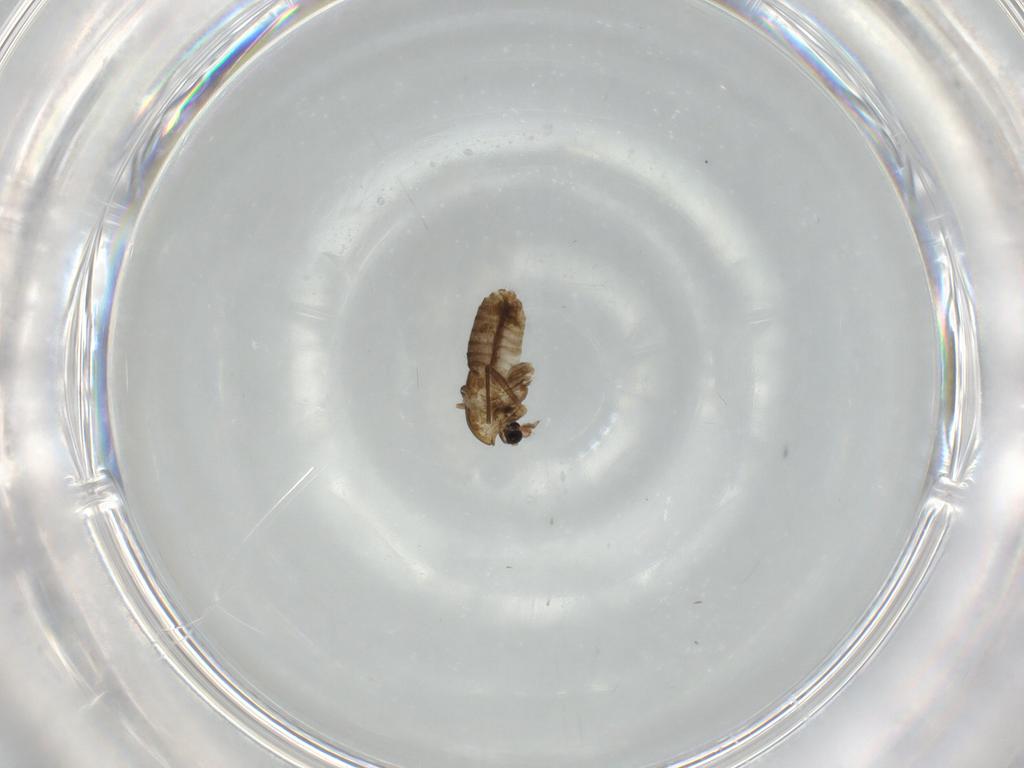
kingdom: Animalia
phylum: Arthropoda
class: Insecta
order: Diptera
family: Chironomidae
